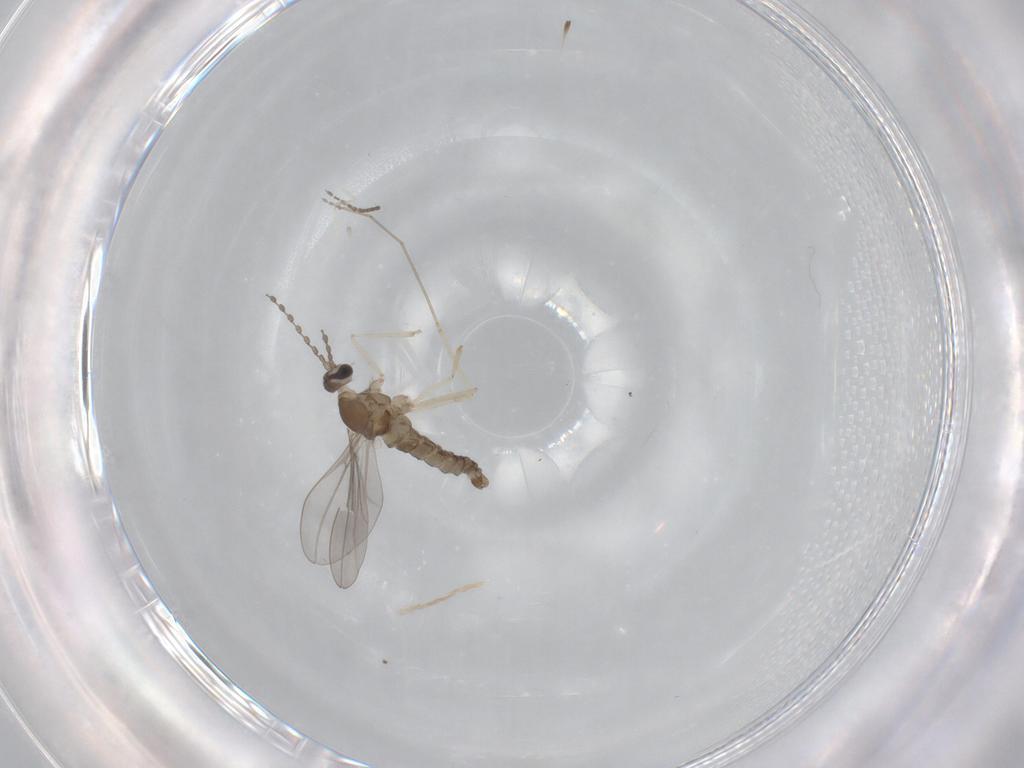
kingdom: Animalia
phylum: Arthropoda
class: Insecta
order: Diptera
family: Cecidomyiidae
